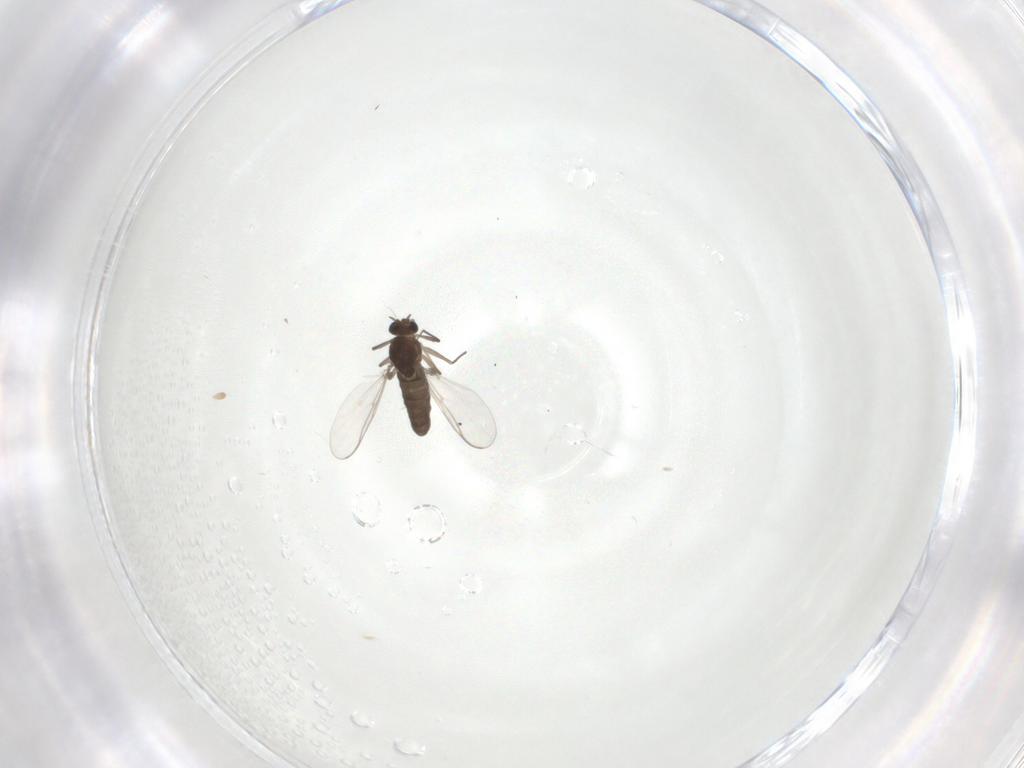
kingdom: Animalia
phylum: Arthropoda
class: Insecta
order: Diptera
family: Chironomidae
